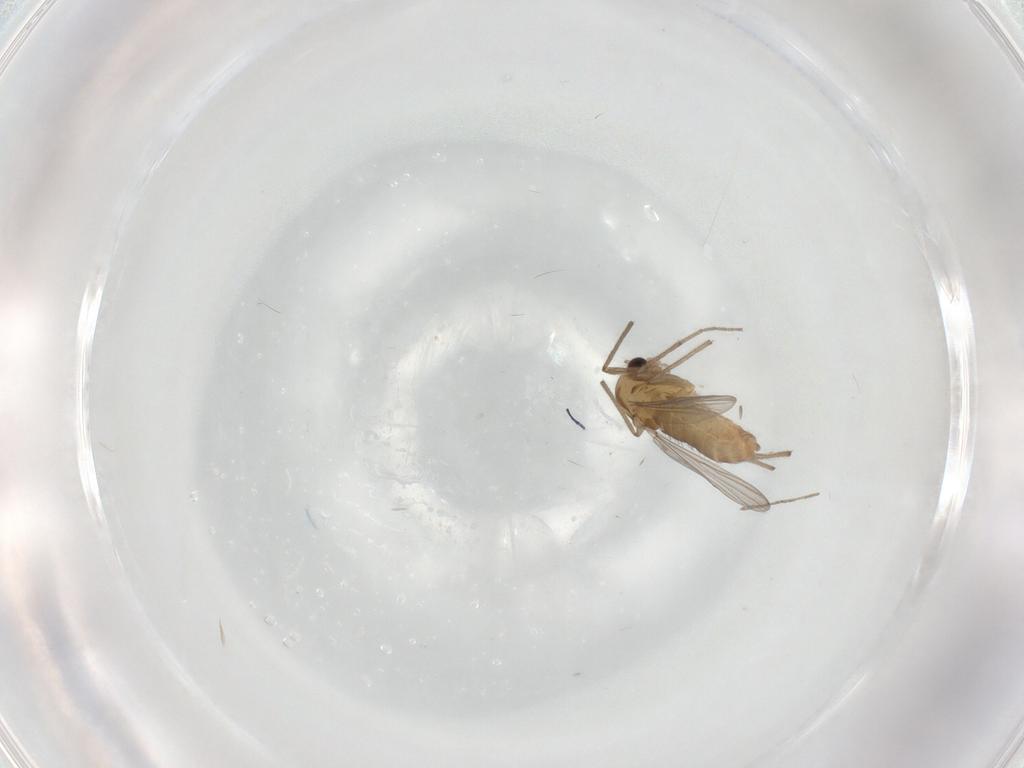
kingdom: Animalia
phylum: Arthropoda
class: Insecta
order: Diptera
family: Chironomidae
